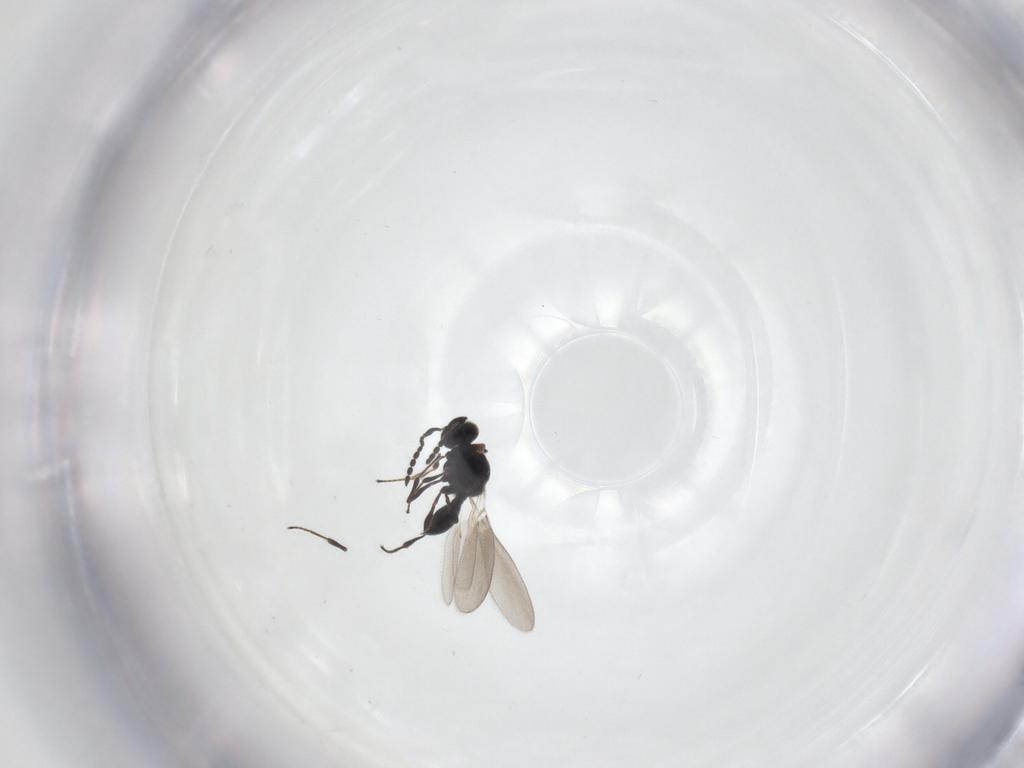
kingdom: Animalia
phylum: Arthropoda
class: Insecta
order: Hymenoptera
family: Platygastridae
